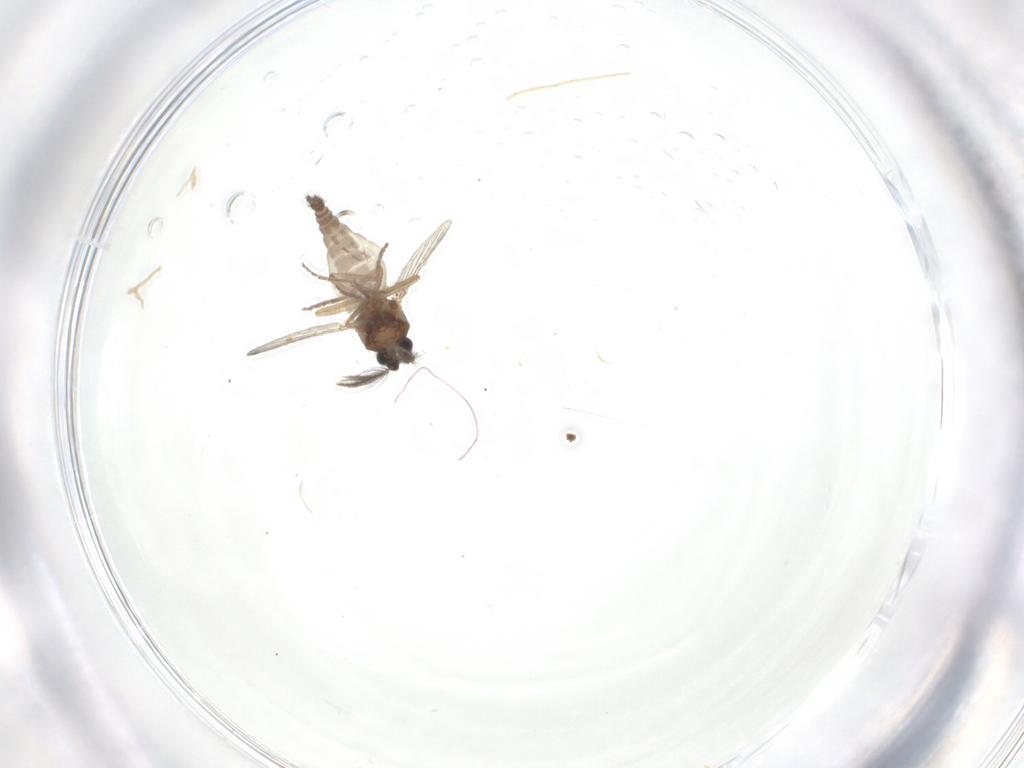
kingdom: Animalia
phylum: Arthropoda
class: Insecta
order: Diptera
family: Ceratopogonidae
